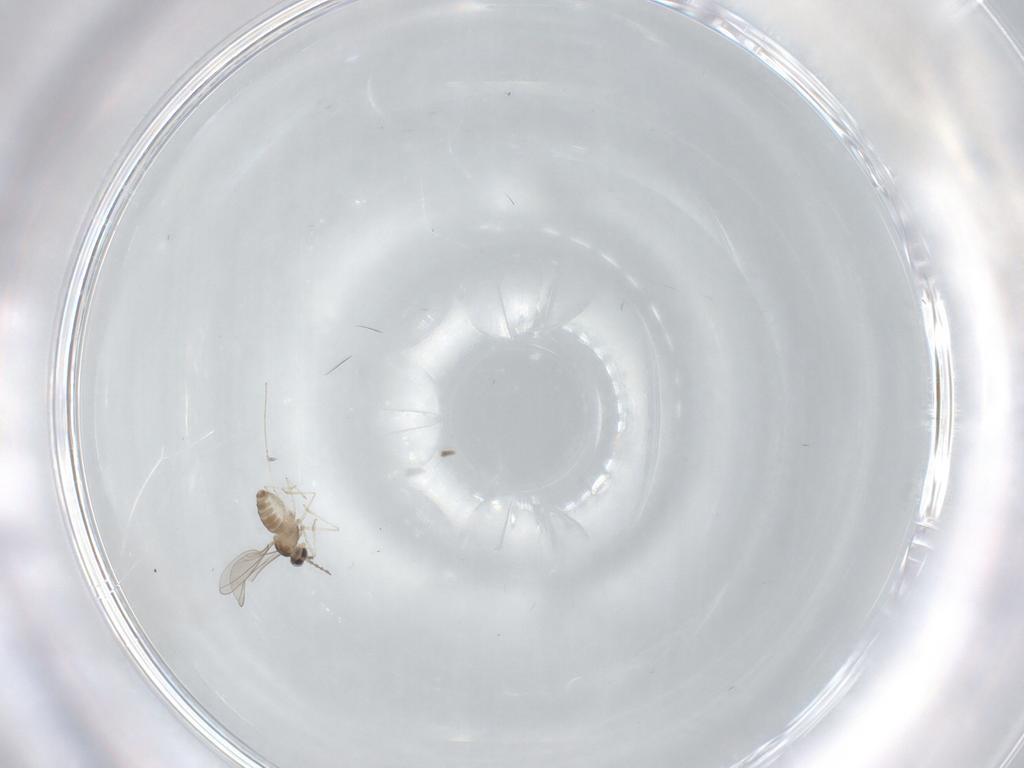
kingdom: Animalia
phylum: Arthropoda
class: Insecta
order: Diptera
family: Cecidomyiidae
